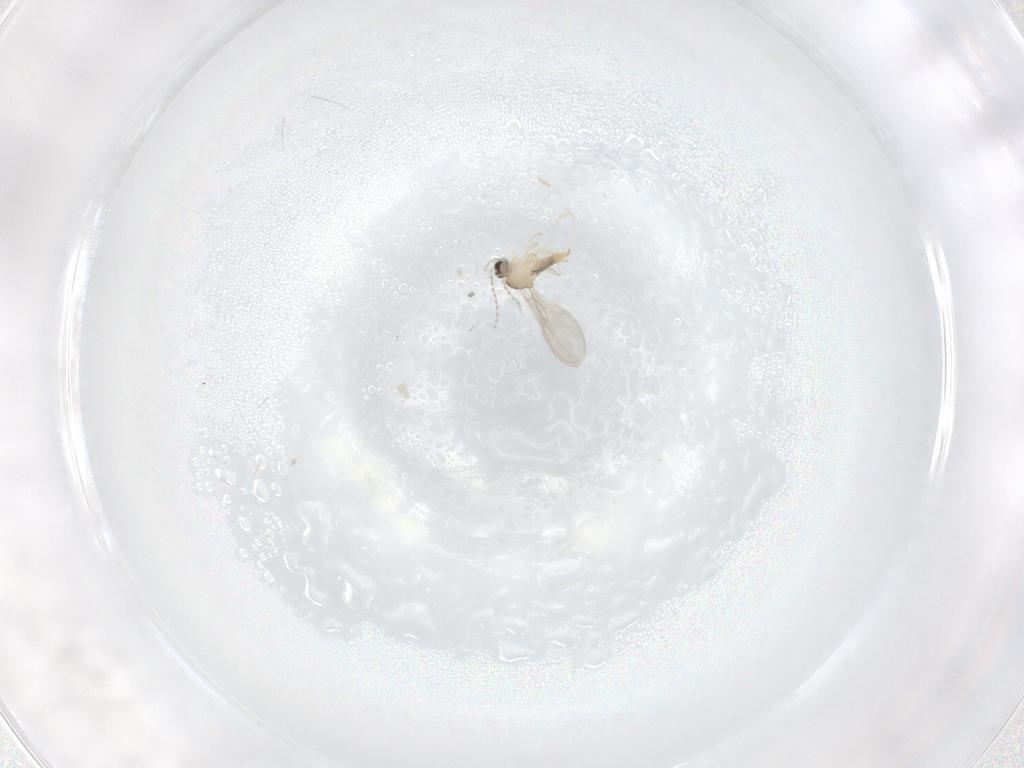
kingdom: Animalia
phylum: Arthropoda
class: Insecta
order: Diptera
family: Cecidomyiidae
